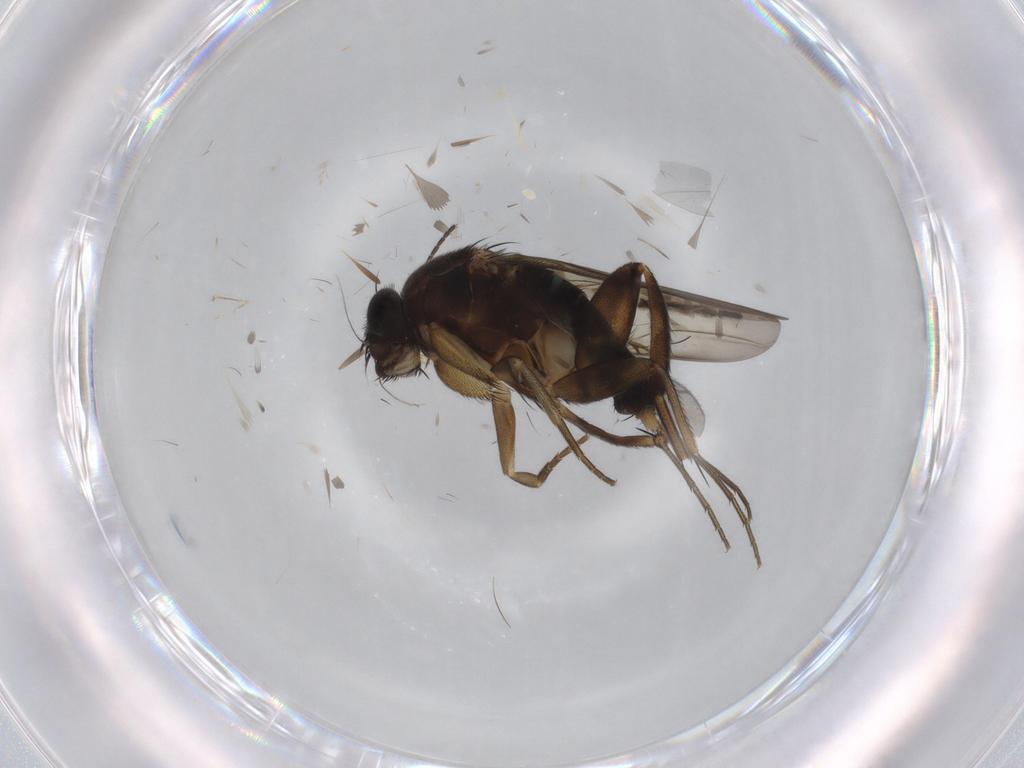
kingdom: Animalia
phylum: Arthropoda
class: Insecta
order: Diptera
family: Phoridae
